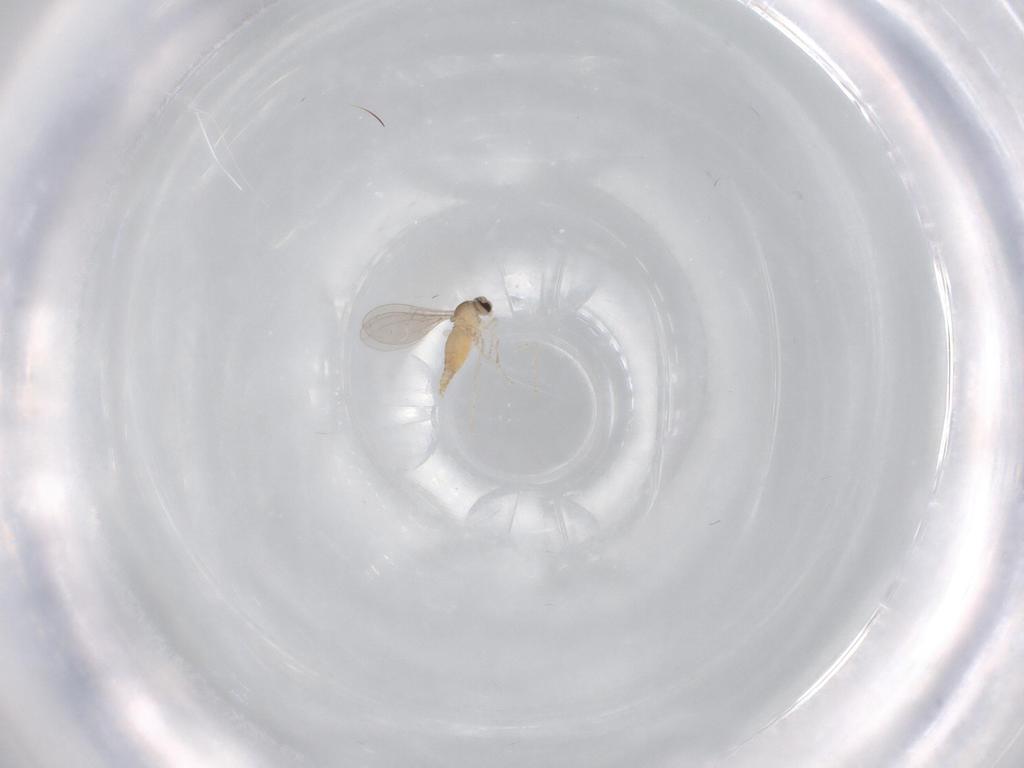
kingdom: Animalia
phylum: Arthropoda
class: Insecta
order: Diptera
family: Cecidomyiidae
